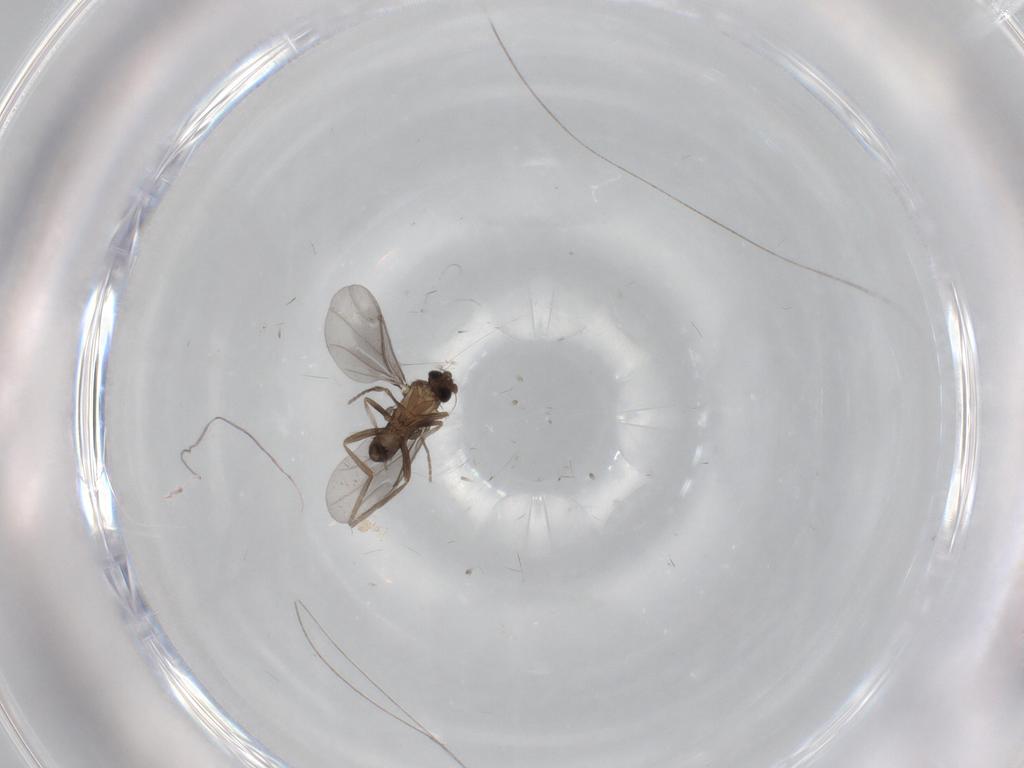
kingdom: Animalia
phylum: Arthropoda
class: Insecta
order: Diptera
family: Phoridae
